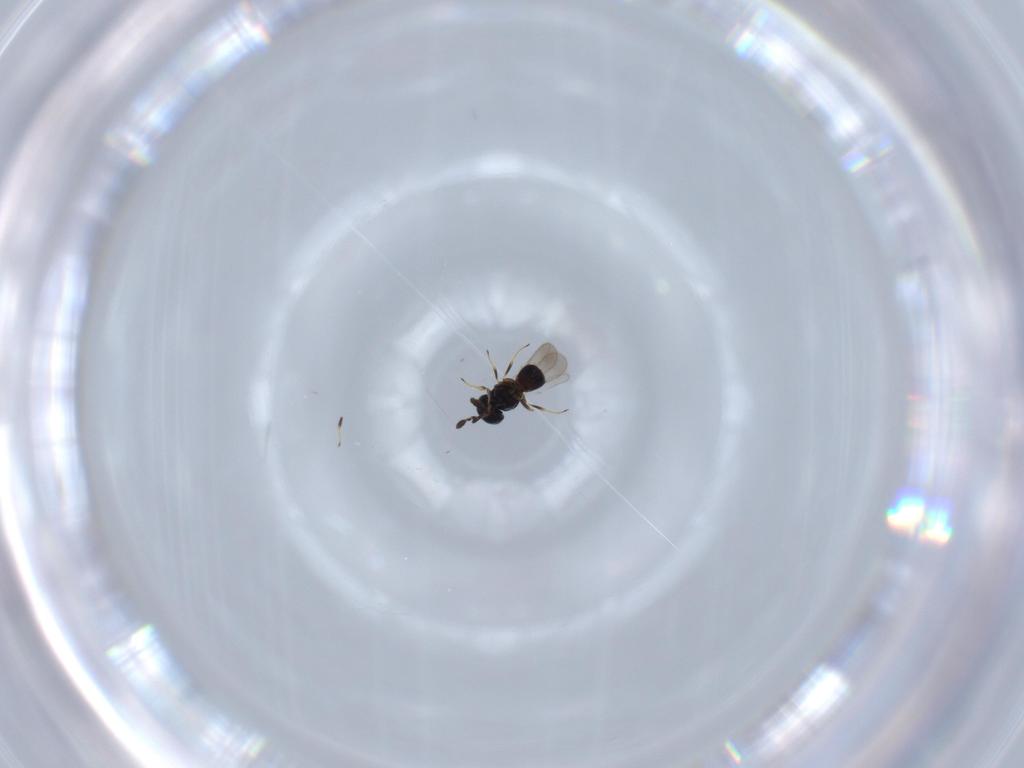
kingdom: Animalia
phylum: Arthropoda
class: Insecta
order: Hymenoptera
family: Scelionidae
